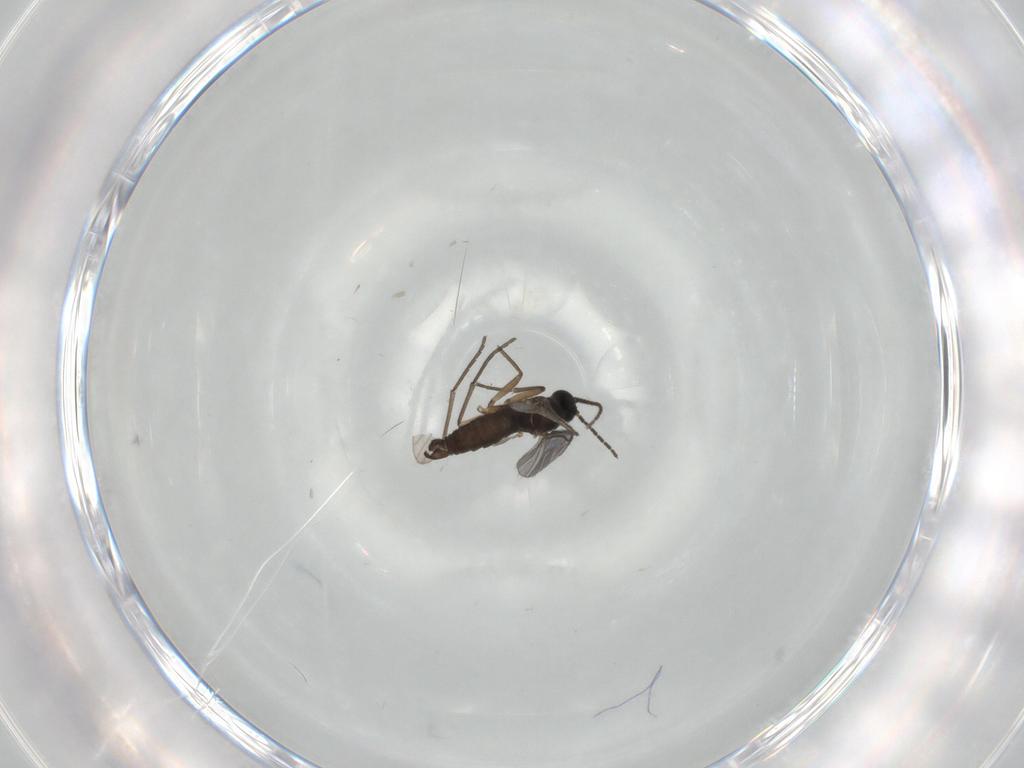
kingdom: Animalia
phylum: Arthropoda
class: Insecta
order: Diptera
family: Sciaridae
